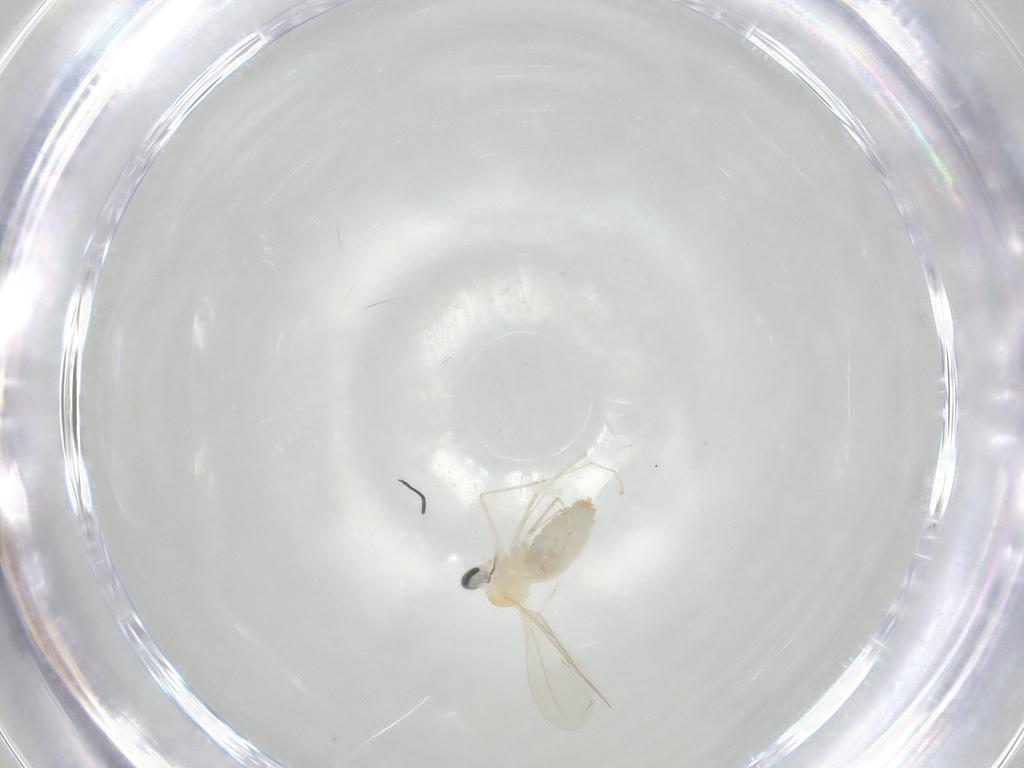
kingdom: Animalia
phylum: Arthropoda
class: Insecta
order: Diptera
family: Cecidomyiidae
